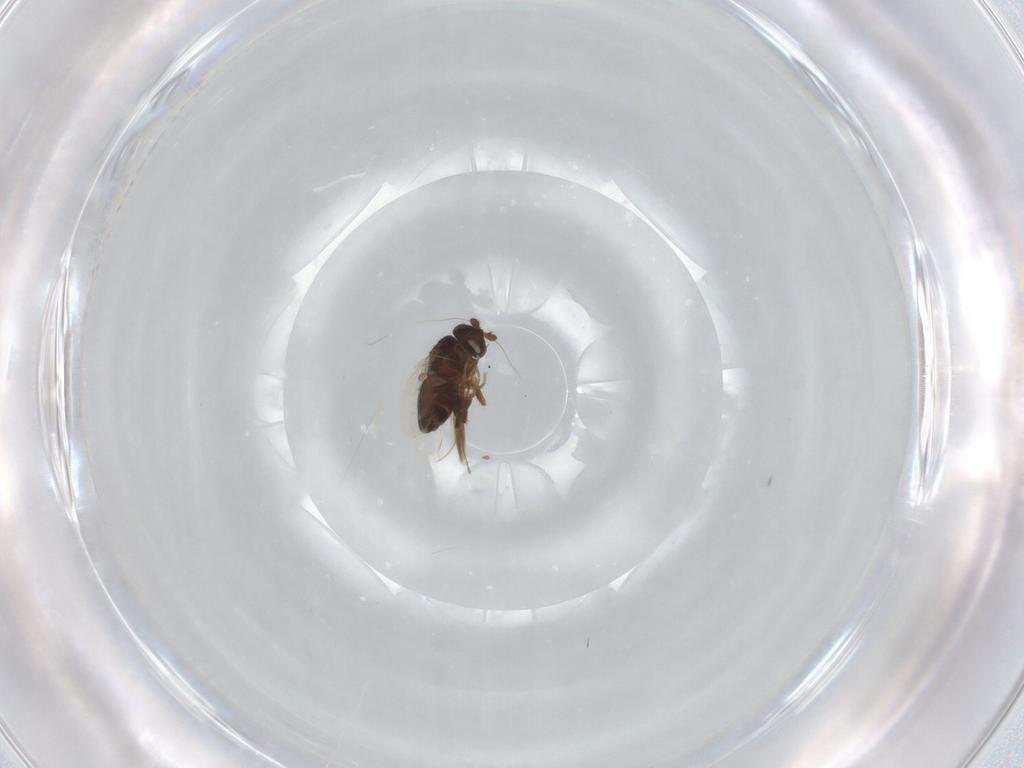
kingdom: Animalia
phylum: Arthropoda
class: Insecta
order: Diptera
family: Ceratopogonidae
